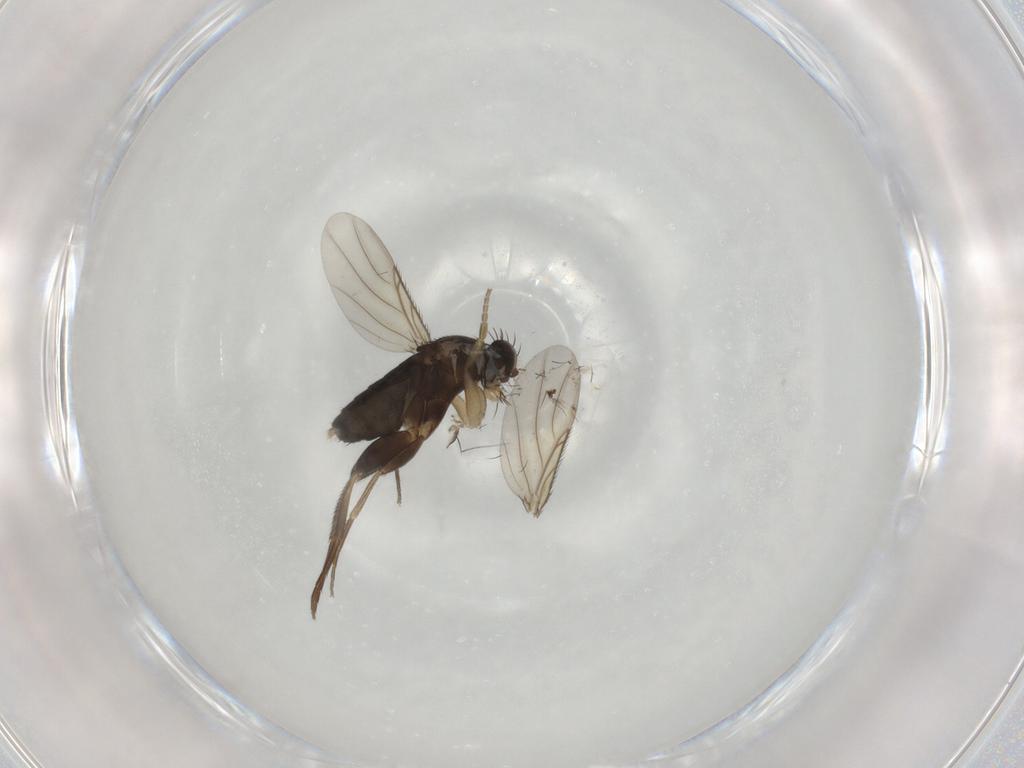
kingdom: Animalia
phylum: Arthropoda
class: Insecta
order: Diptera
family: Phoridae
